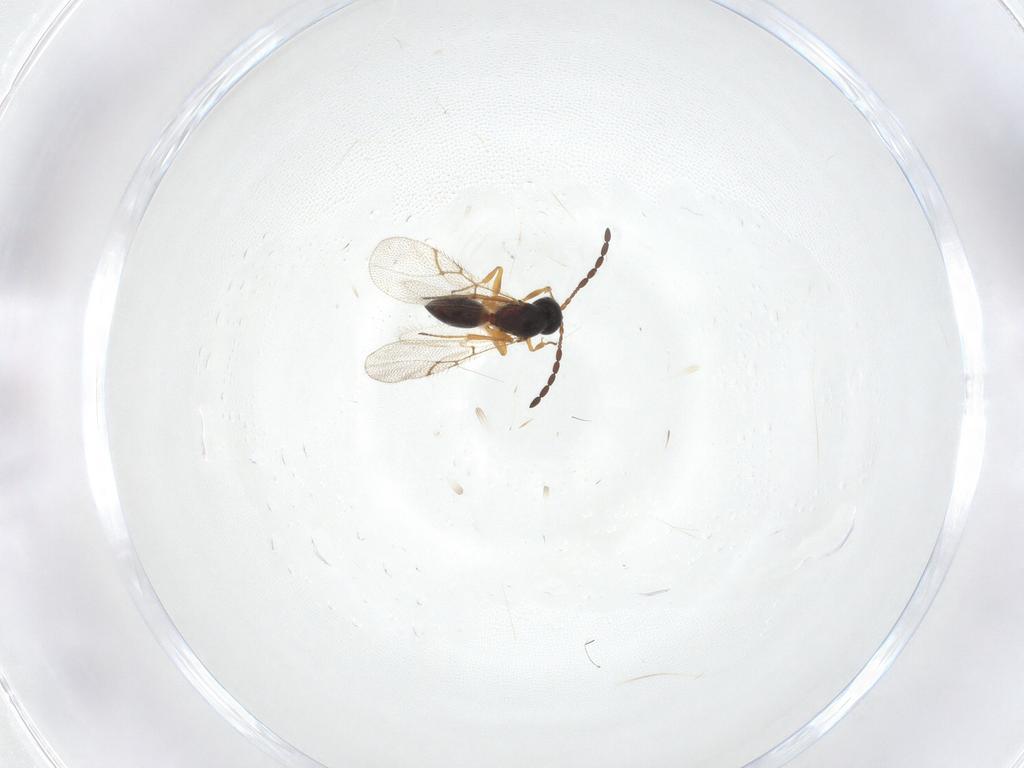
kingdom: Animalia
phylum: Arthropoda
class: Insecta
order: Hymenoptera
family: Figitidae
